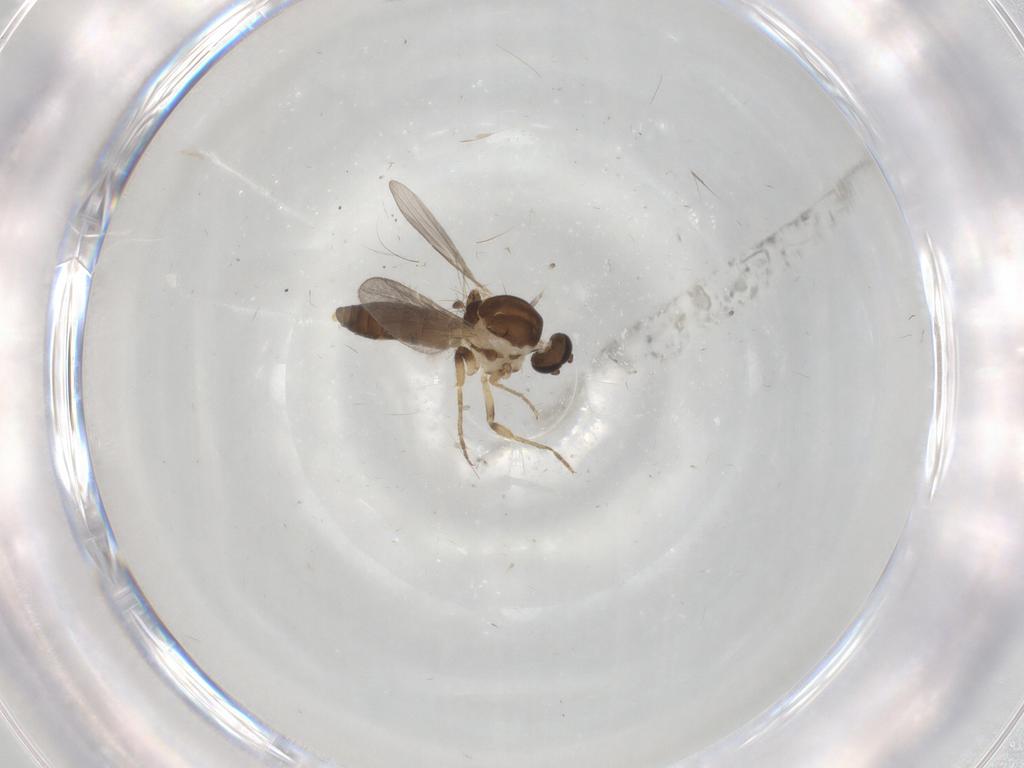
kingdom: Animalia
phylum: Arthropoda
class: Insecta
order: Diptera
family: Ceratopogonidae
